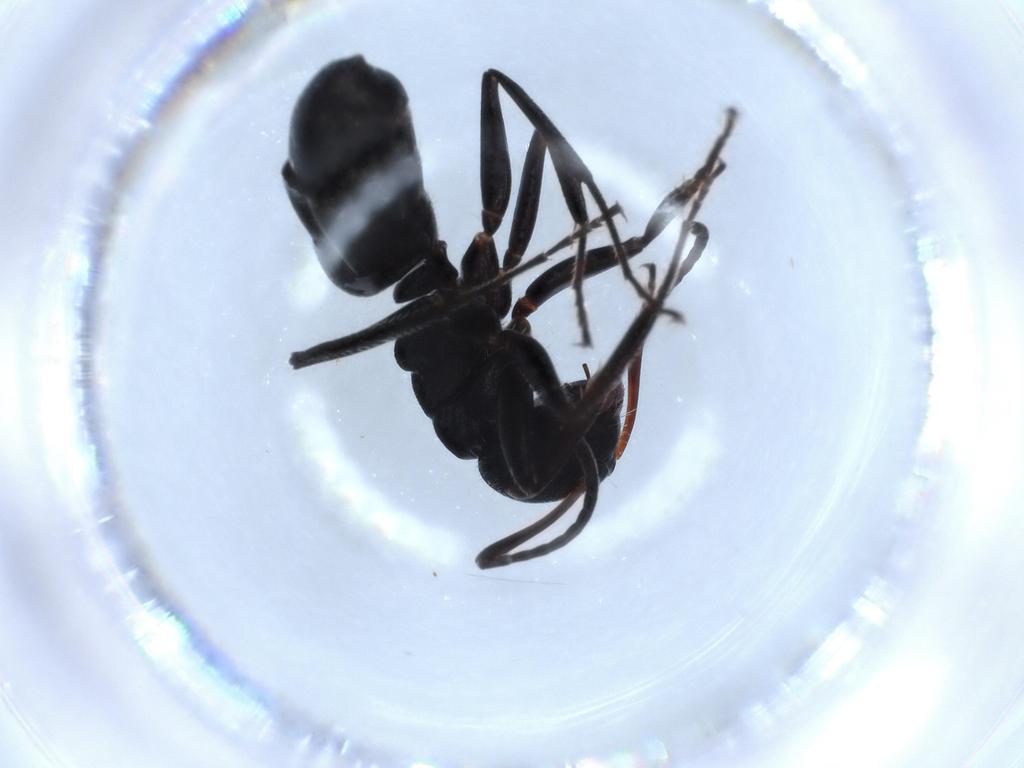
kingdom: Animalia
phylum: Arthropoda
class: Insecta
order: Hymenoptera
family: Formicidae
